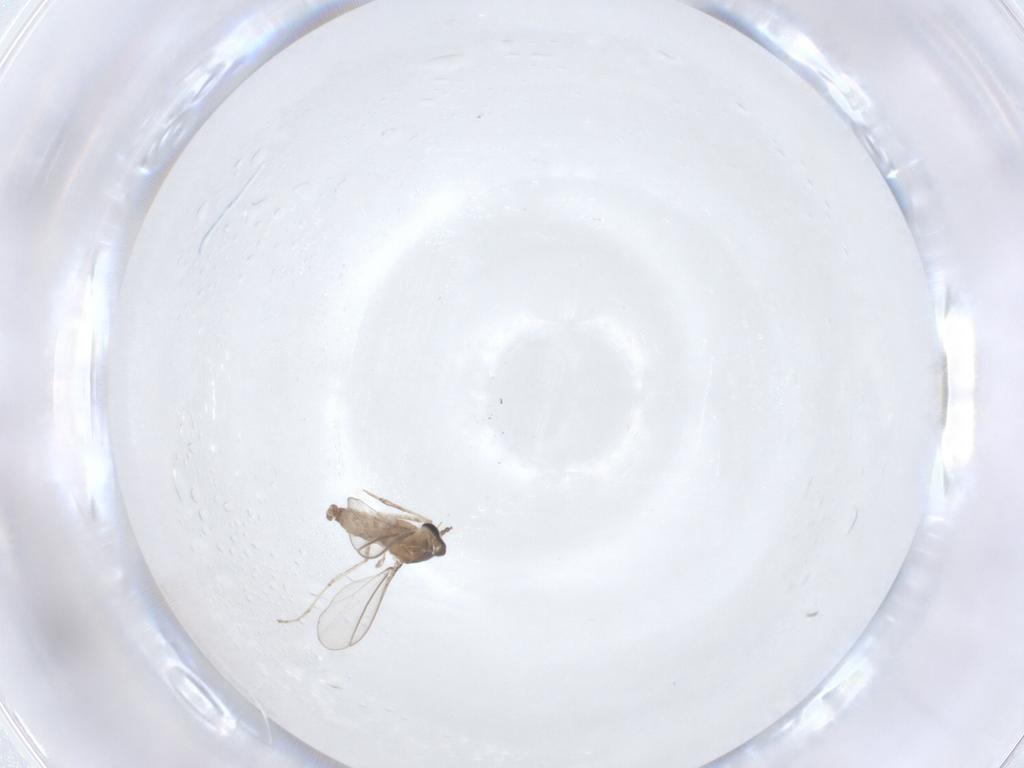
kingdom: Animalia
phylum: Arthropoda
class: Insecta
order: Diptera
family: Cecidomyiidae
